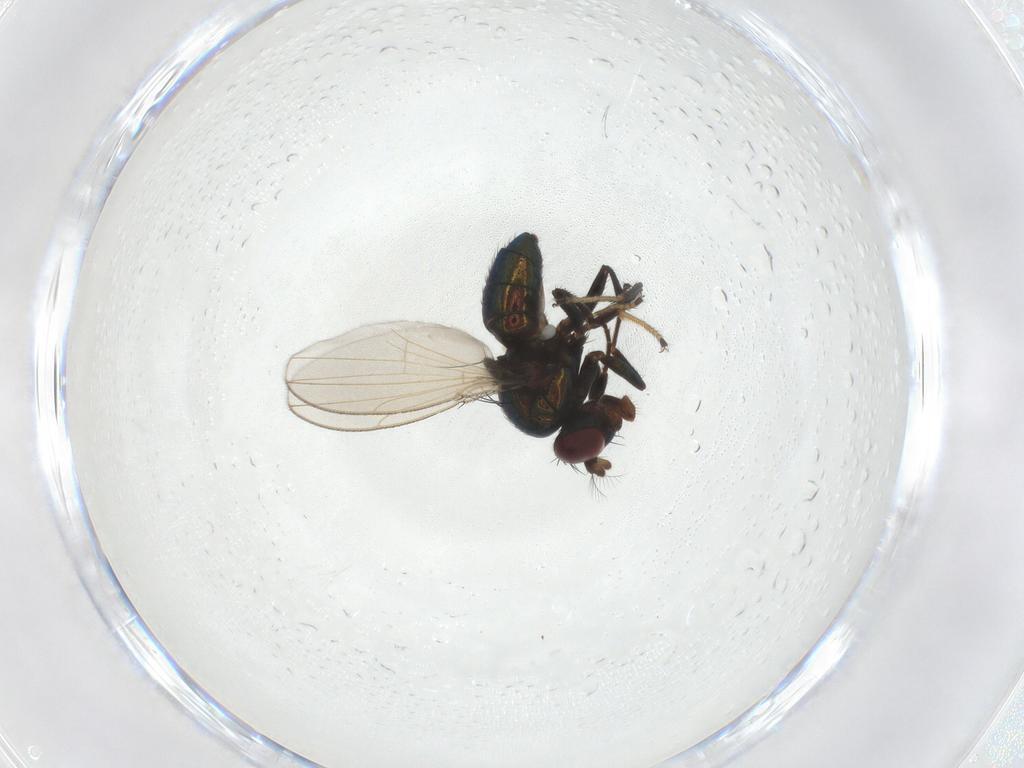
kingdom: Animalia
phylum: Arthropoda
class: Insecta
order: Diptera
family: Ephydridae
